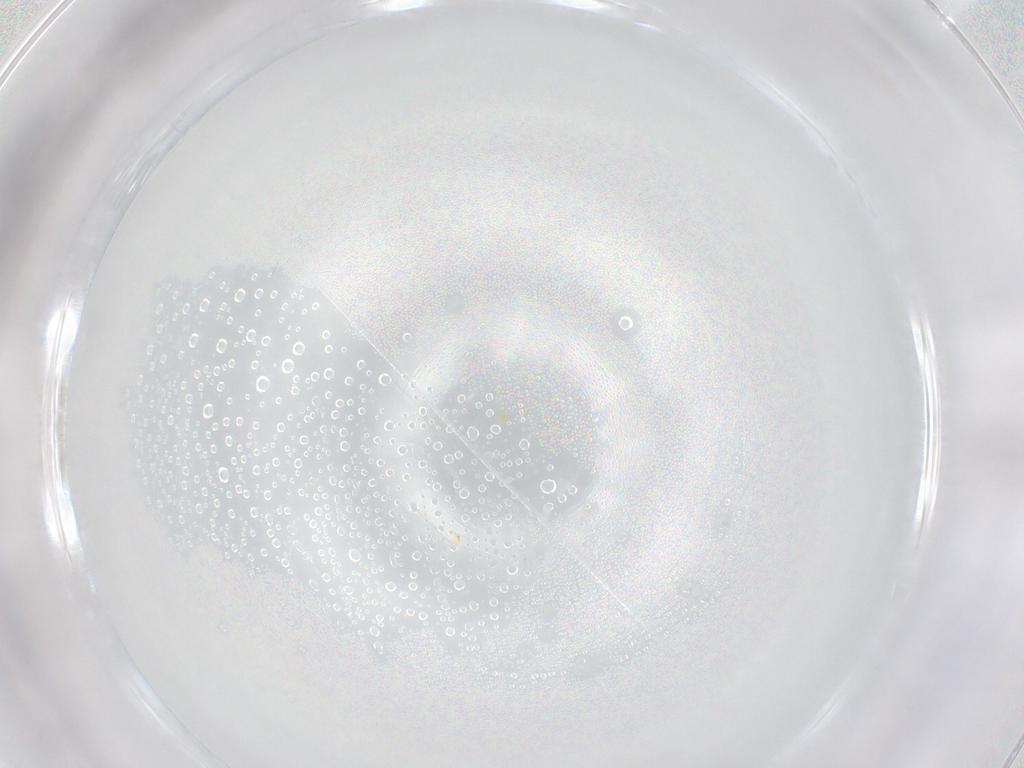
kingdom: Animalia
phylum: Arthropoda
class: Insecta
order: Thysanoptera
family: Thripidae
